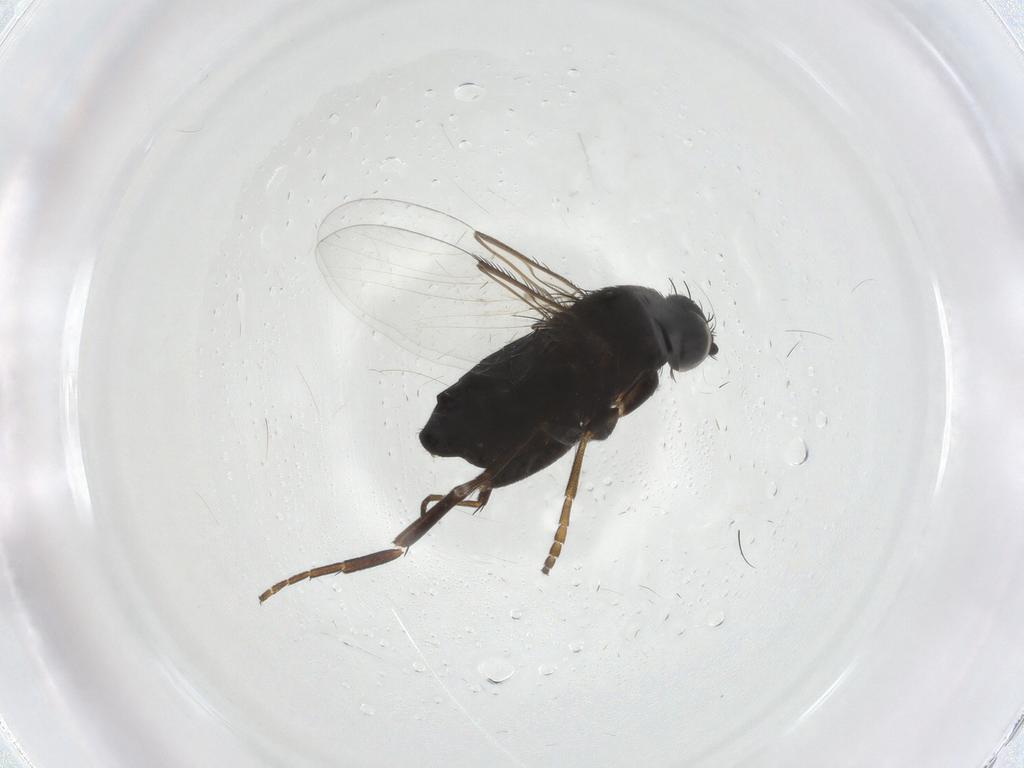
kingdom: Animalia
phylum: Arthropoda
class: Insecta
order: Diptera
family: Phoridae
